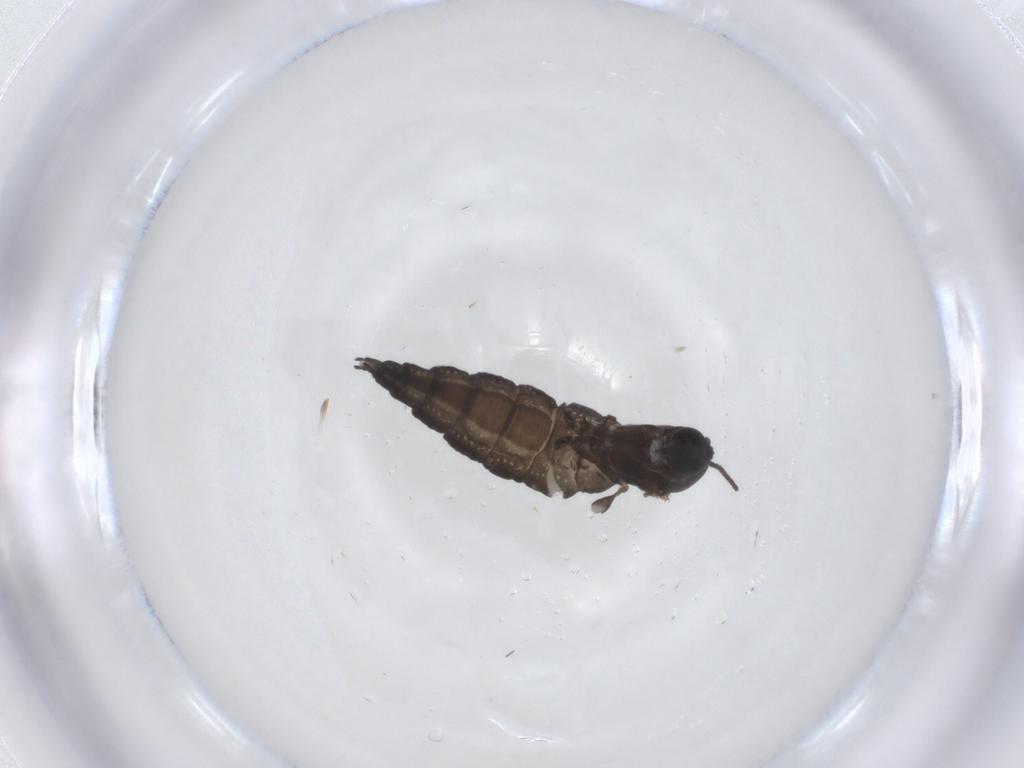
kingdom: Animalia
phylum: Arthropoda
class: Insecta
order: Diptera
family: Sciaridae
